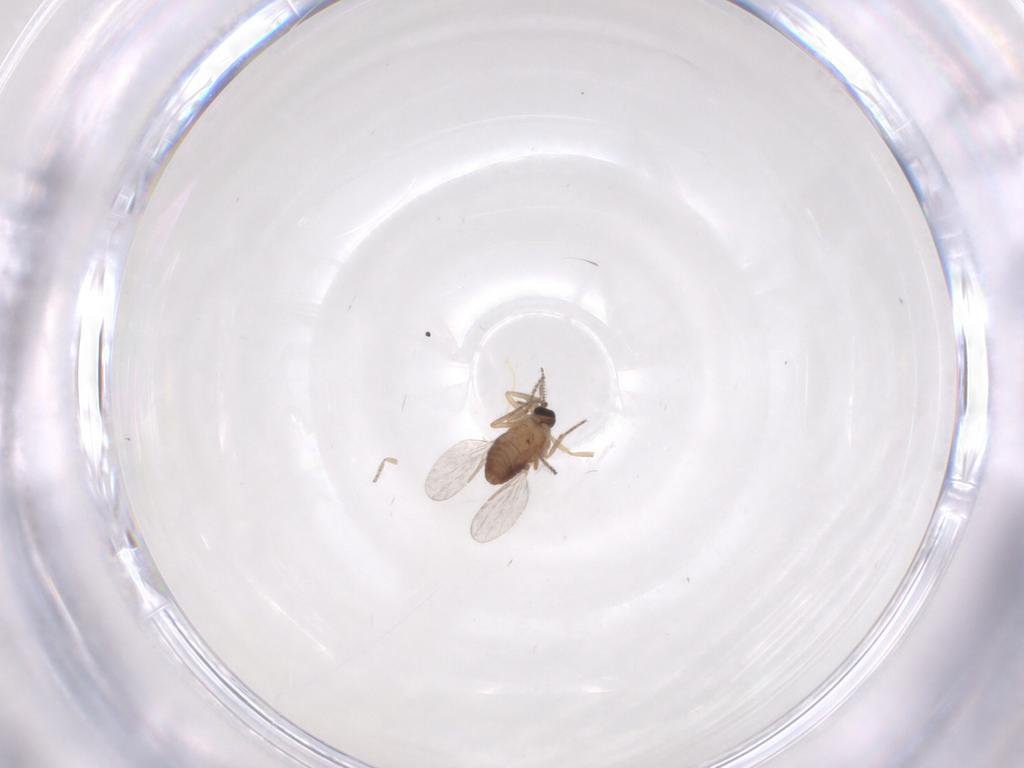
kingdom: Animalia
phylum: Arthropoda
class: Insecta
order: Diptera
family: Ceratopogonidae
